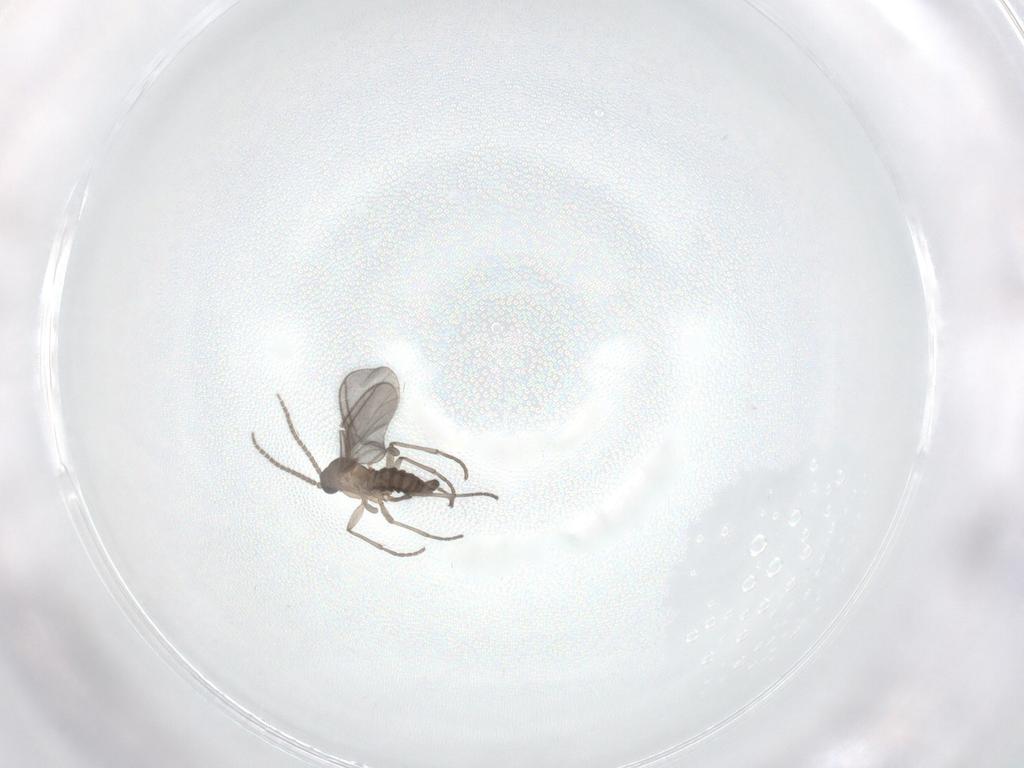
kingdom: Animalia
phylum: Arthropoda
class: Insecta
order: Diptera
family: Sciaridae
